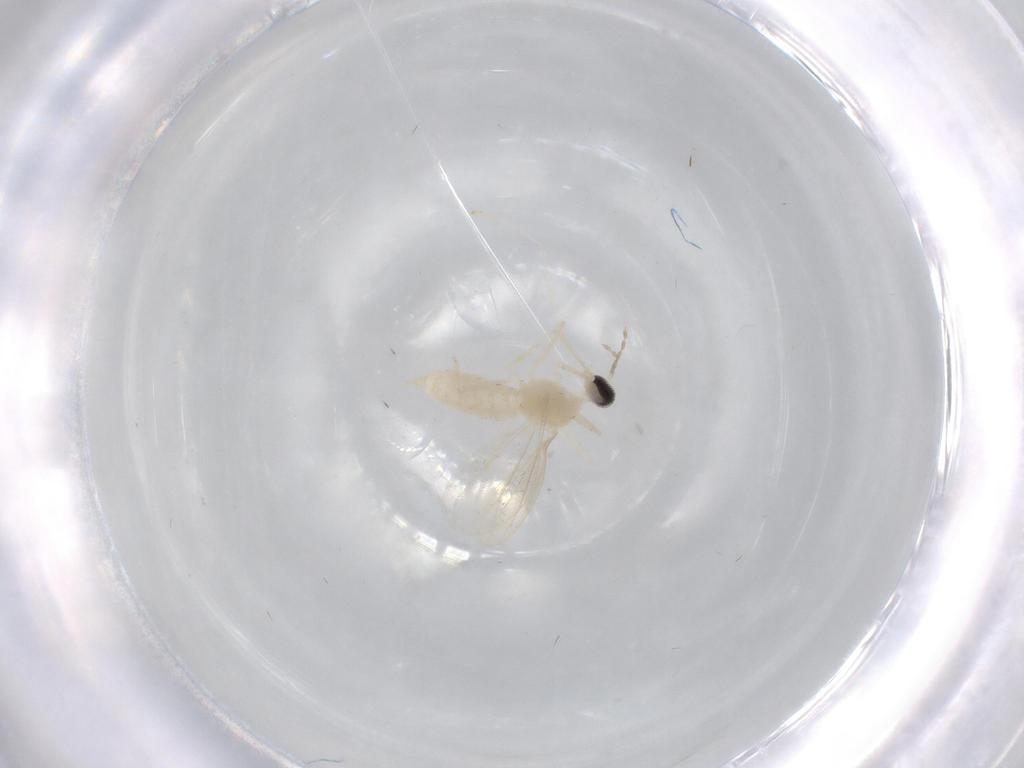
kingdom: Animalia
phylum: Arthropoda
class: Insecta
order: Diptera
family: Cecidomyiidae
